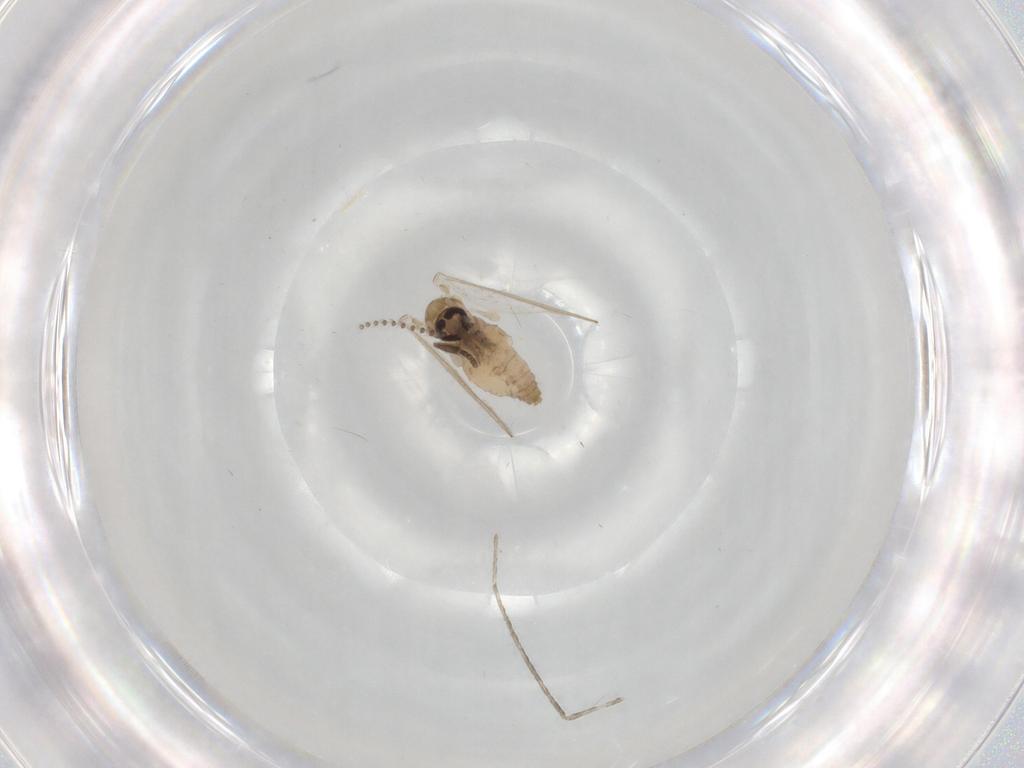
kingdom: Animalia
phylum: Arthropoda
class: Insecta
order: Diptera
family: Psychodidae
